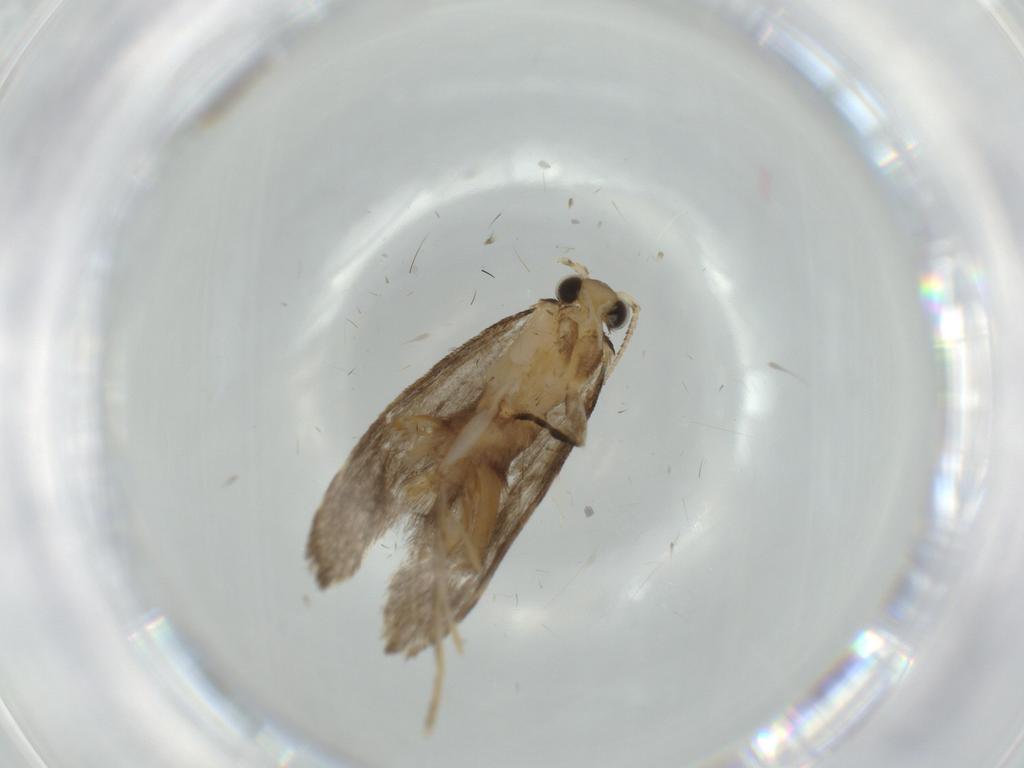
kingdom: Animalia
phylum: Arthropoda
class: Insecta
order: Lepidoptera
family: Tineidae
